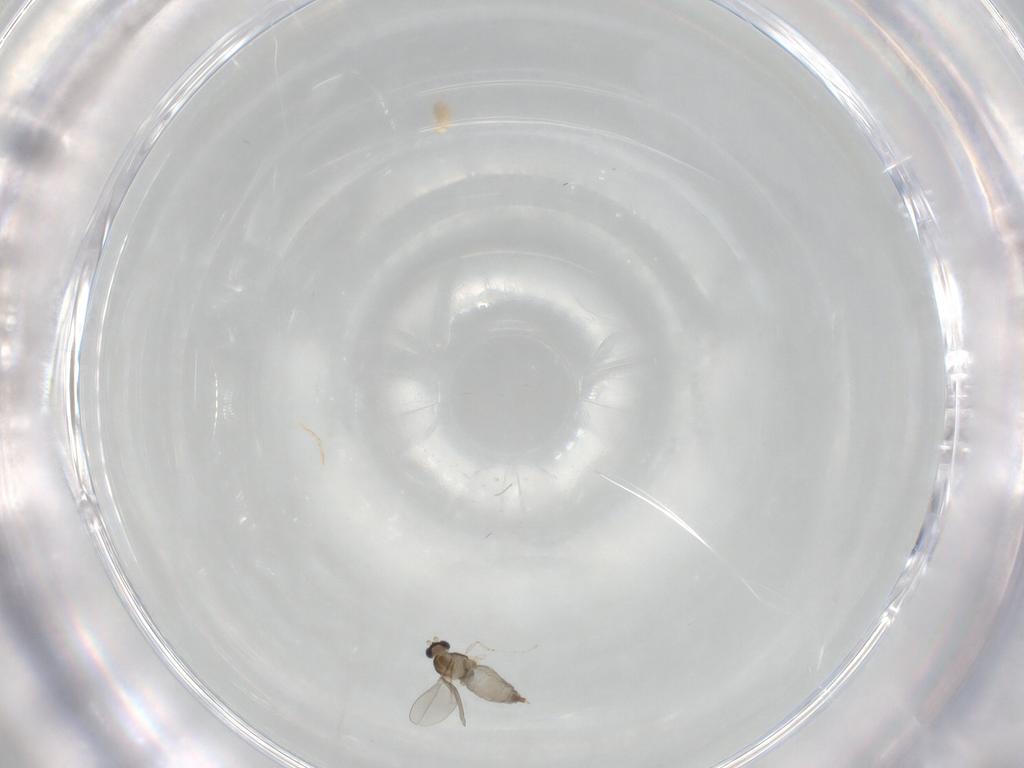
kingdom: Animalia
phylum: Arthropoda
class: Insecta
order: Diptera
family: Cecidomyiidae
